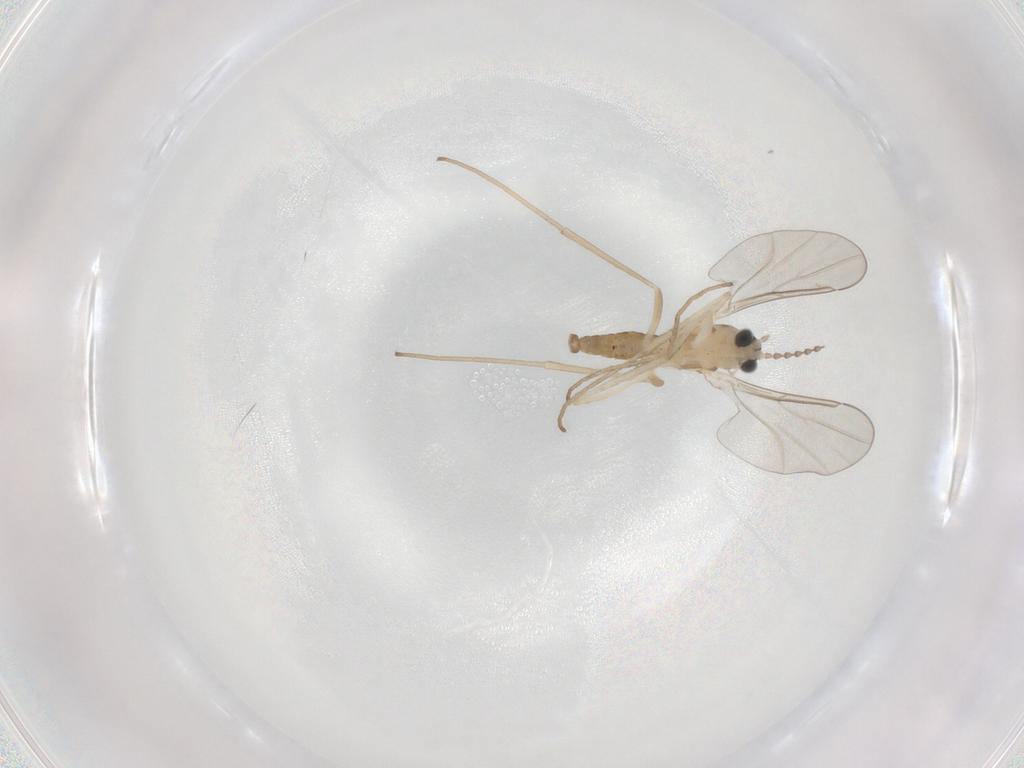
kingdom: Animalia
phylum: Arthropoda
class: Insecta
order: Diptera
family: Cecidomyiidae
